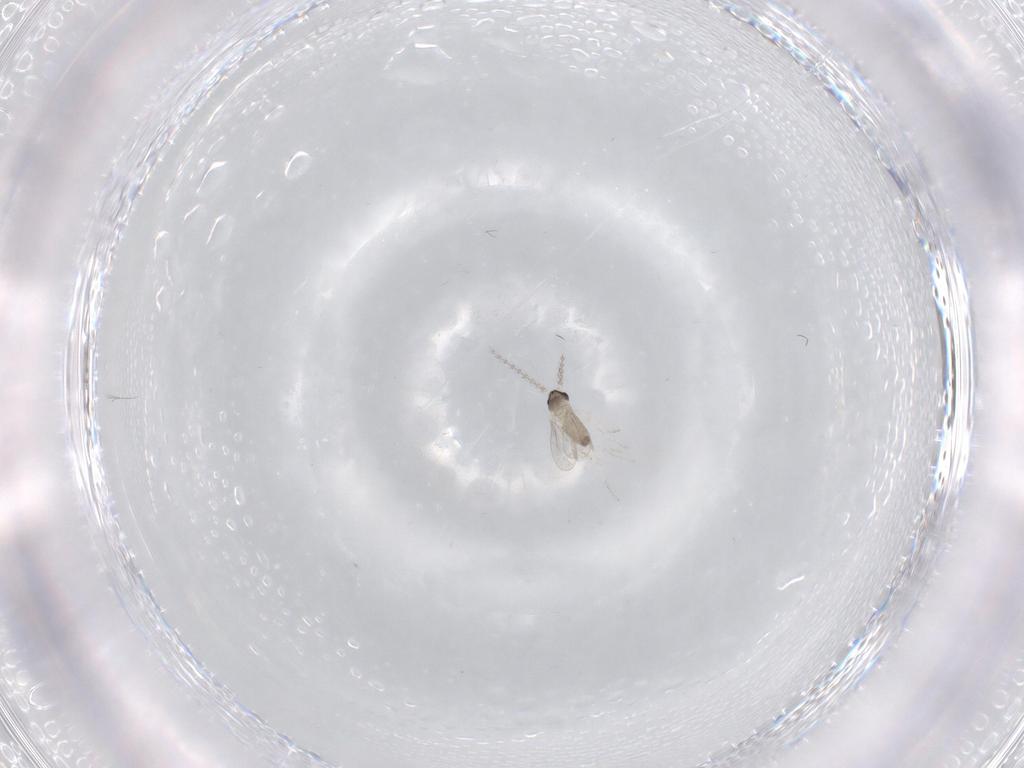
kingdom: Animalia
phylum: Arthropoda
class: Insecta
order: Diptera
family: Cecidomyiidae
